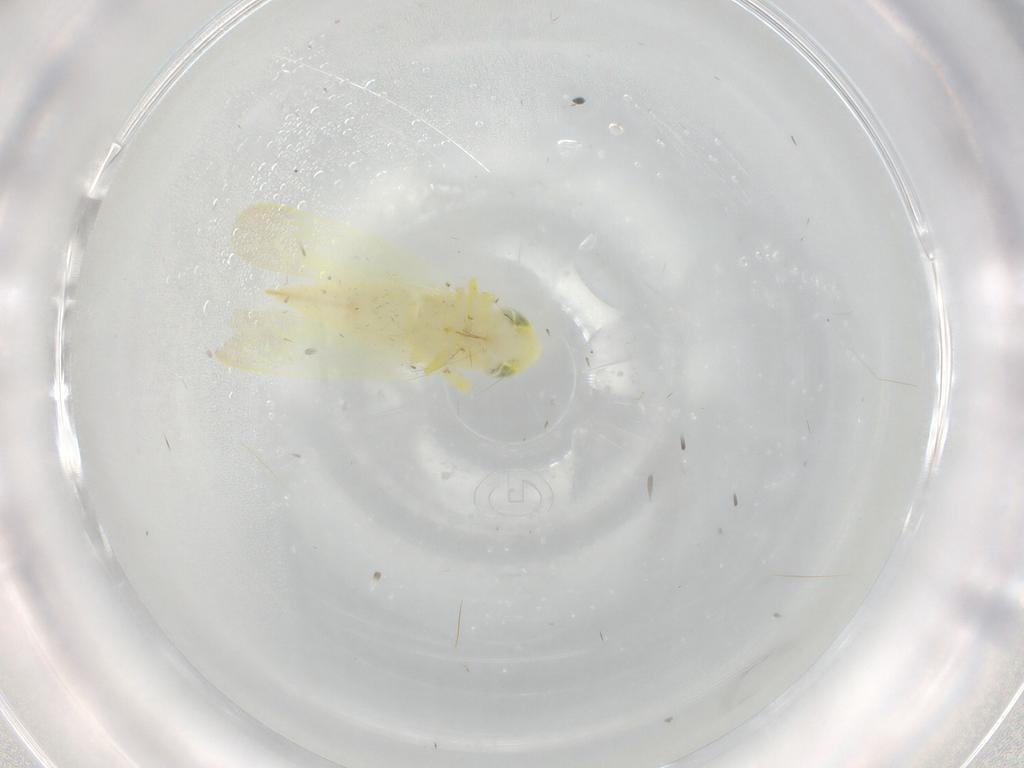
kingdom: Animalia
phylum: Arthropoda
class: Insecta
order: Hemiptera
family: Cicadellidae
